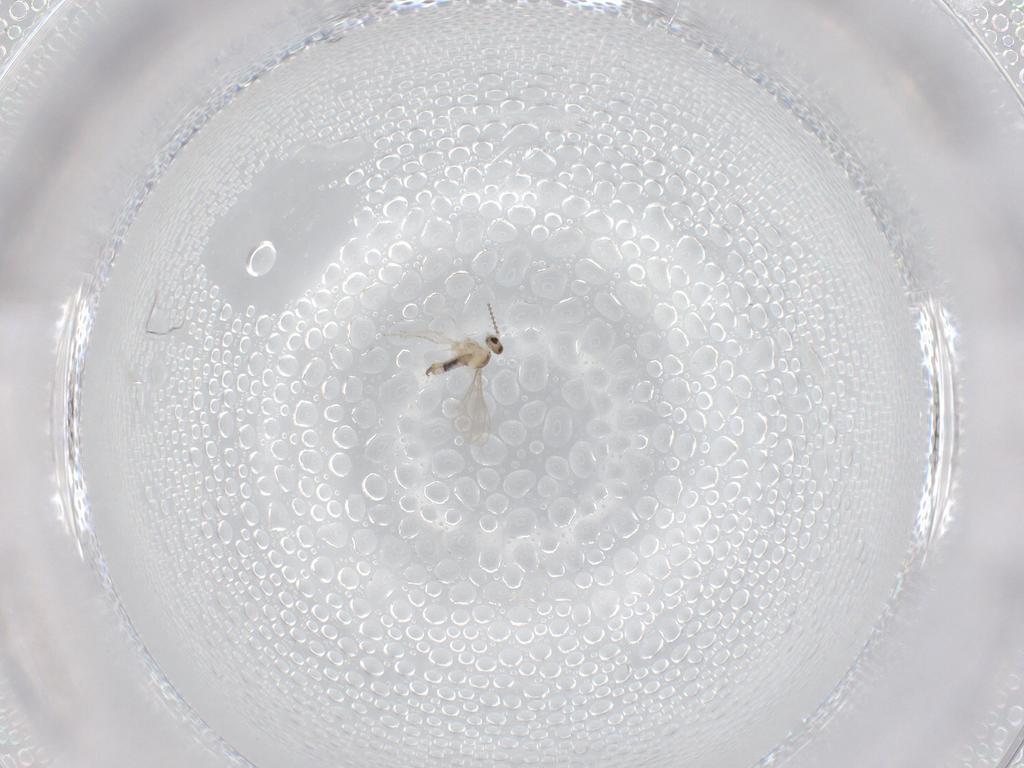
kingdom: Animalia
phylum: Arthropoda
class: Insecta
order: Diptera
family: Cecidomyiidae
